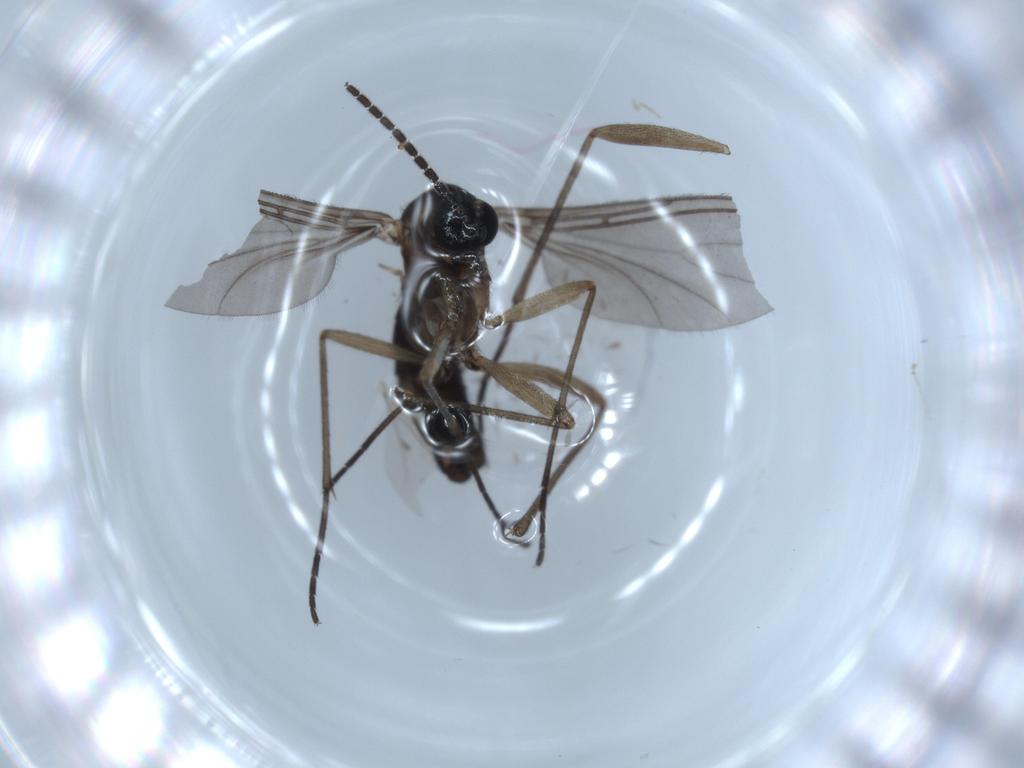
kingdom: Animalia
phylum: Arthropoda
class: Insecta
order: Diptera
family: Sciaridae
